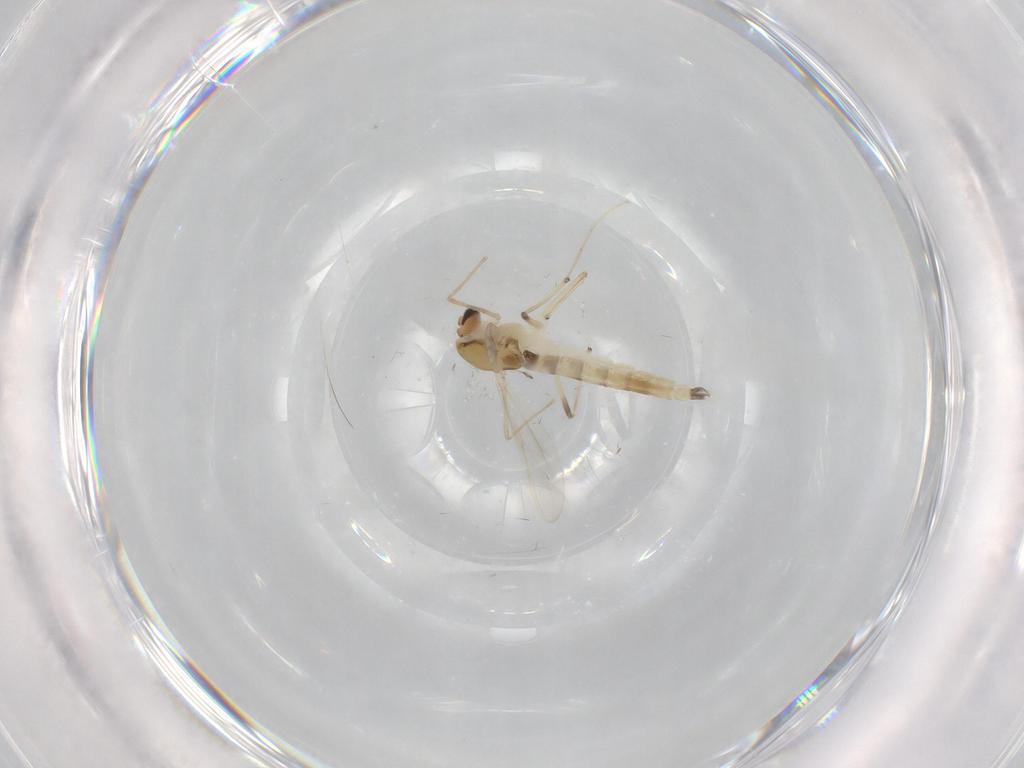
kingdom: Animalia
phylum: Arthropoda
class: Insecta
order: Diptera
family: Chironomidae
